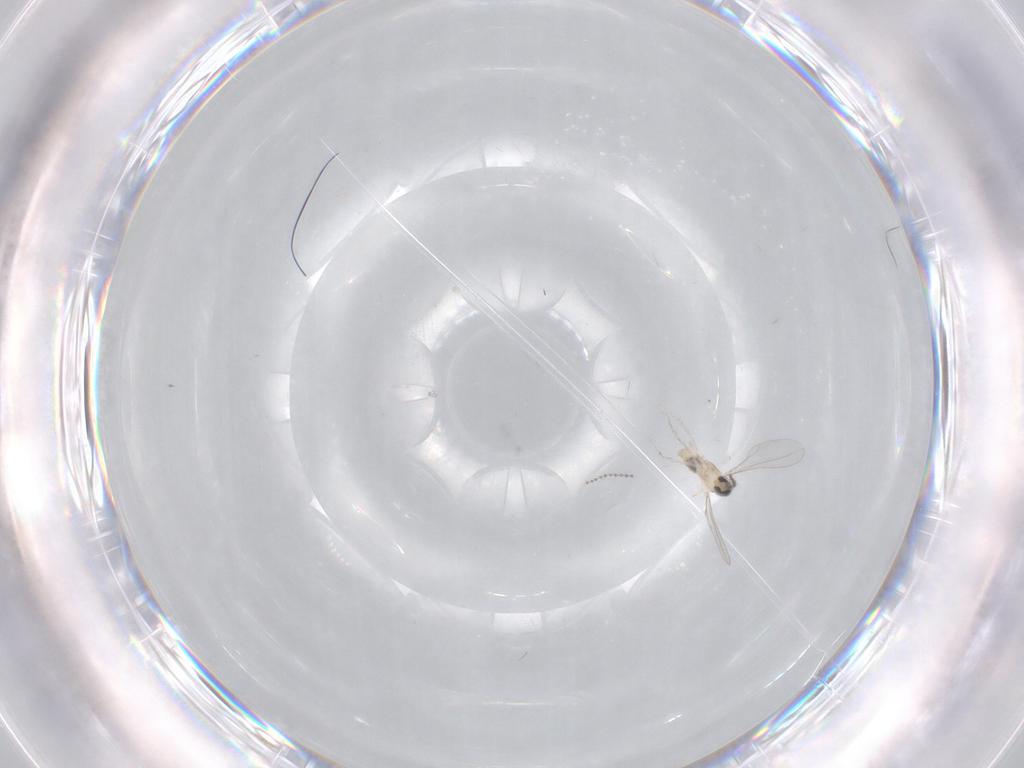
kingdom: Animalia
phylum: Arthropoda
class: Insecta
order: Diptera
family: Cecidomyiidae
